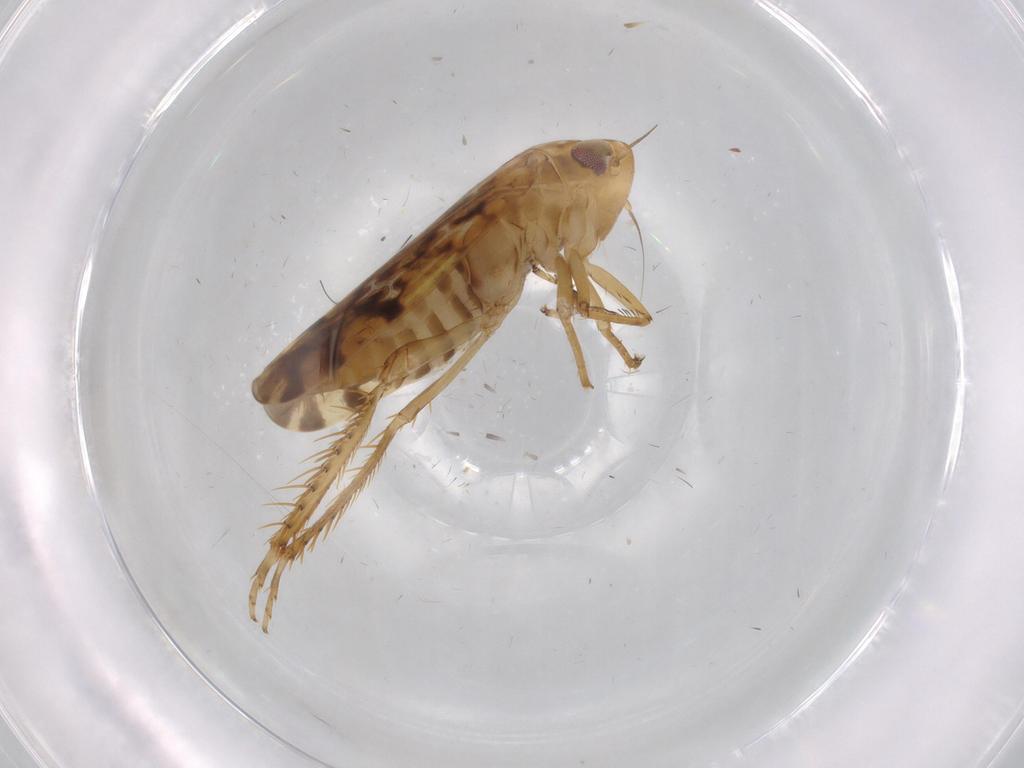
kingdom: Animalia
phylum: Arthropoda
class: Insecta
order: Hemiptera
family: Cicadellidae
